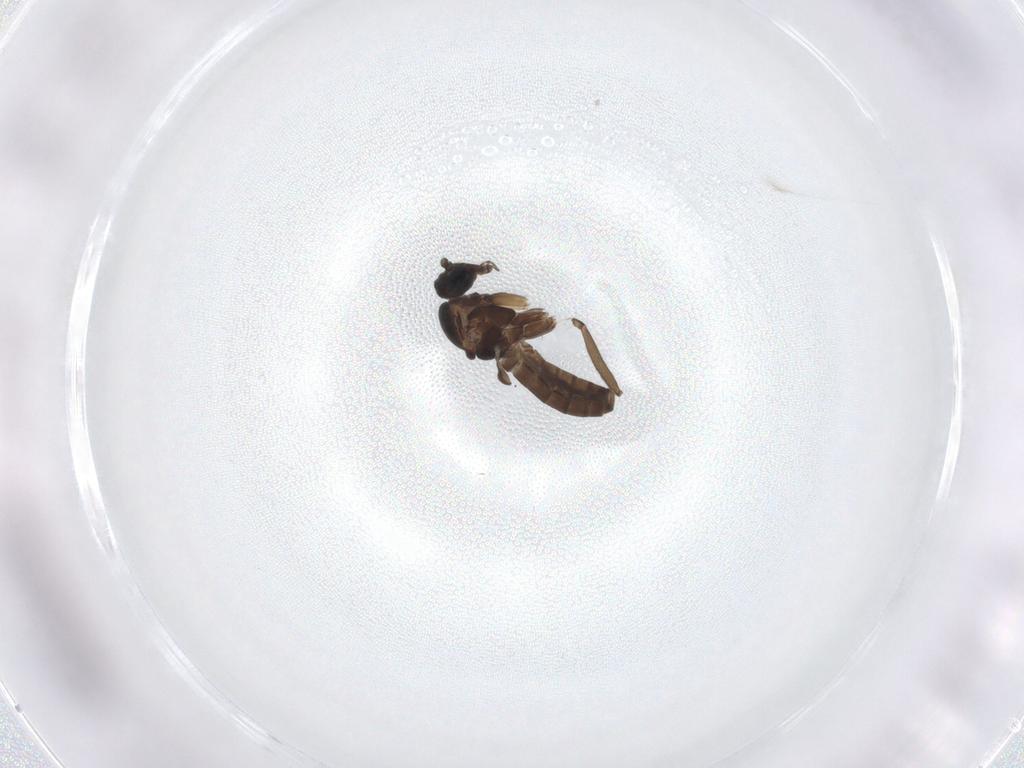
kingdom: Animalia
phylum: Arthropoda
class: Insecta
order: Diptera
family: Sciaridae
